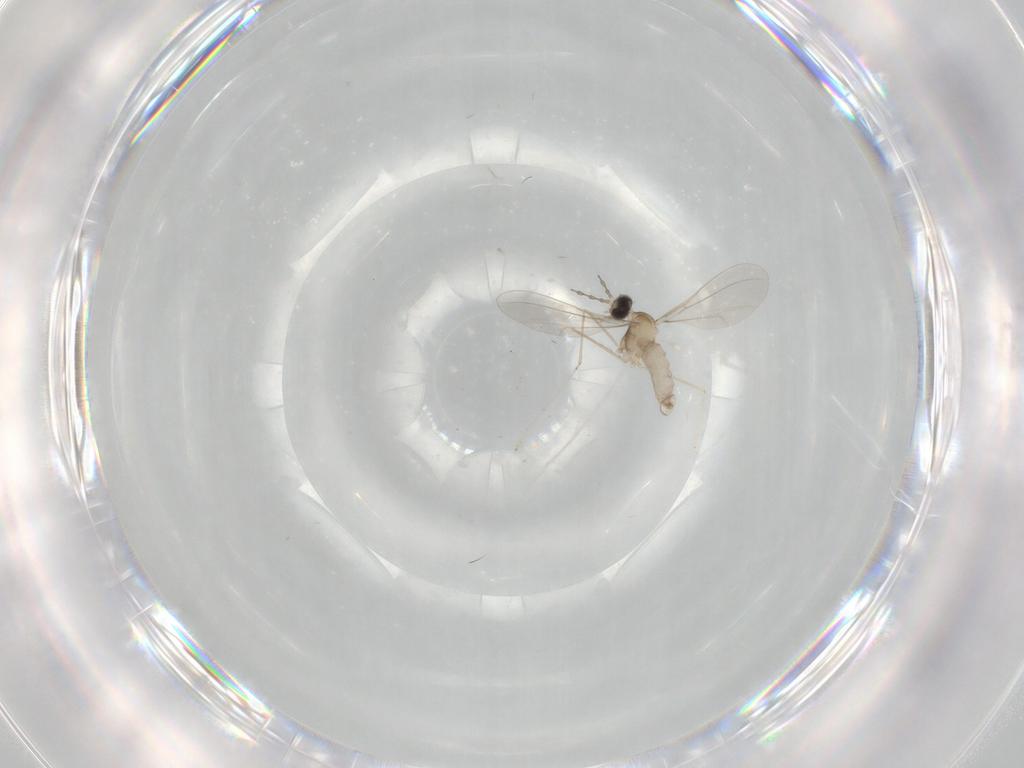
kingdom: Animalia
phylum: Arthropoda
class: Insecta
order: Diptera
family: Cecidomyiidae
